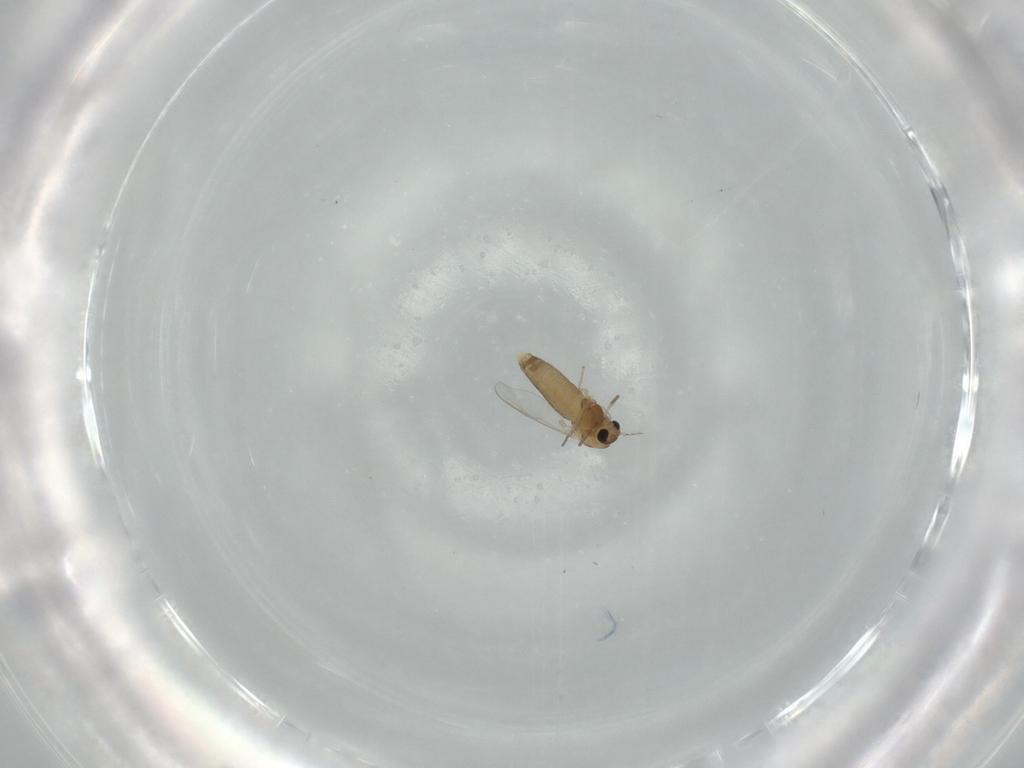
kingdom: Animalia
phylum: Arthropoda
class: Insecta
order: Diptera
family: Chironomidae
